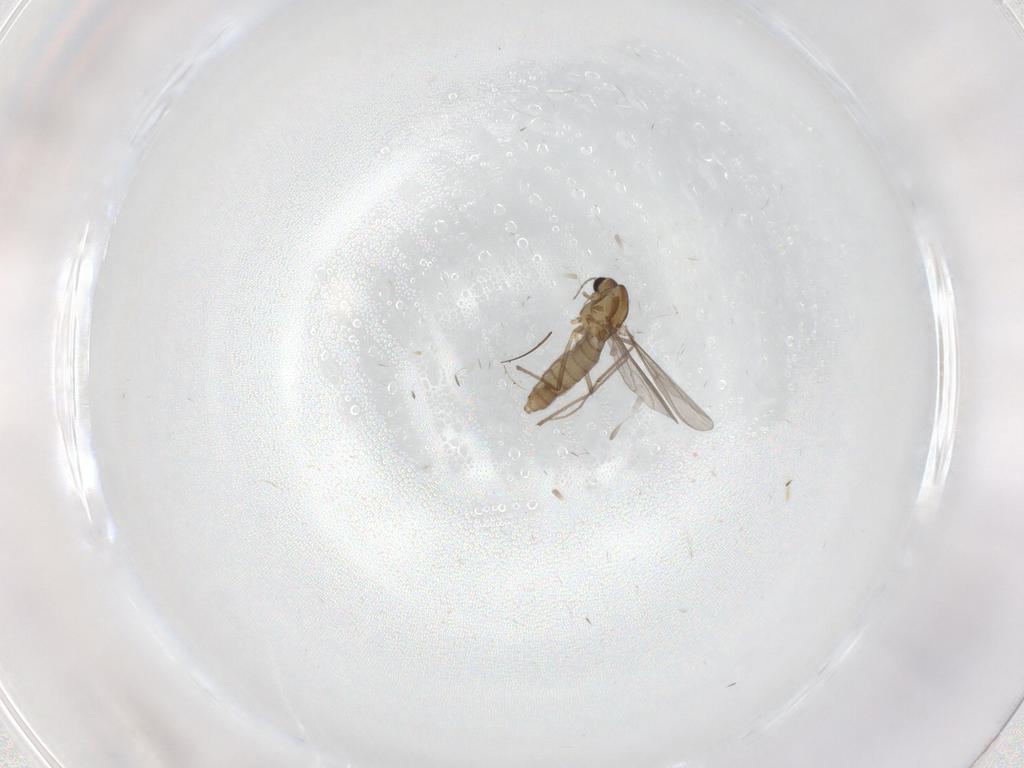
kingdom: Animalia
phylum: Arthropoda
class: Insecta
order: Diptera
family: Chironomidae
